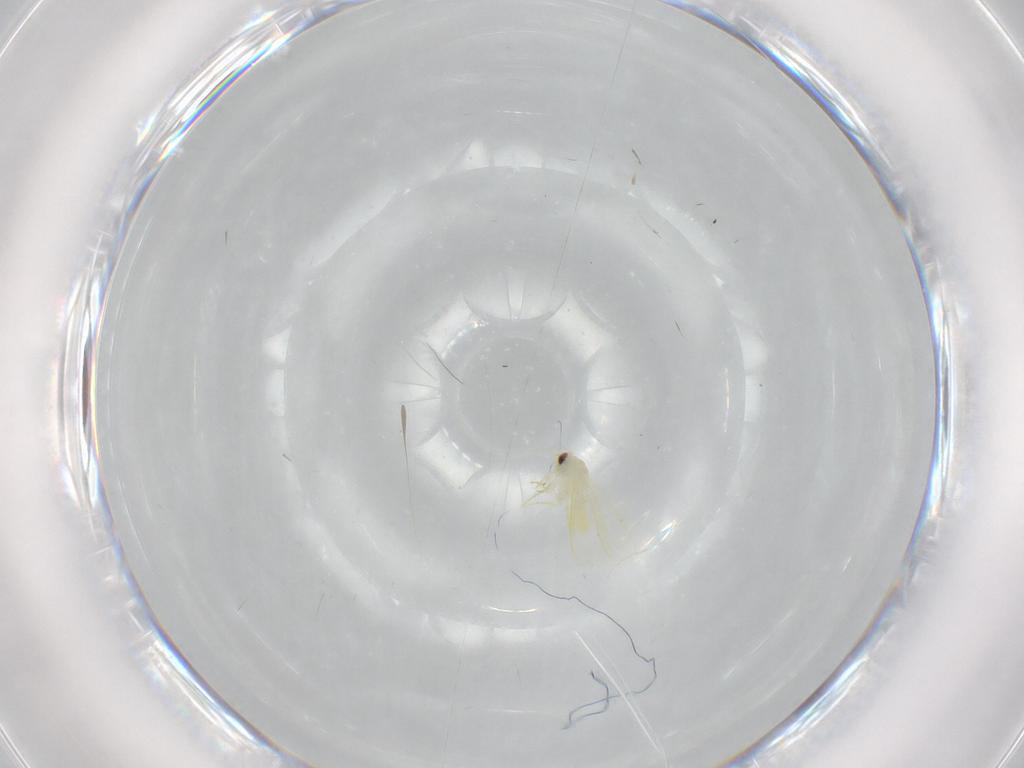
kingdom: Animalia
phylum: Arthropoda
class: Insecta
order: Hemiptera
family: Aleyrodidae
